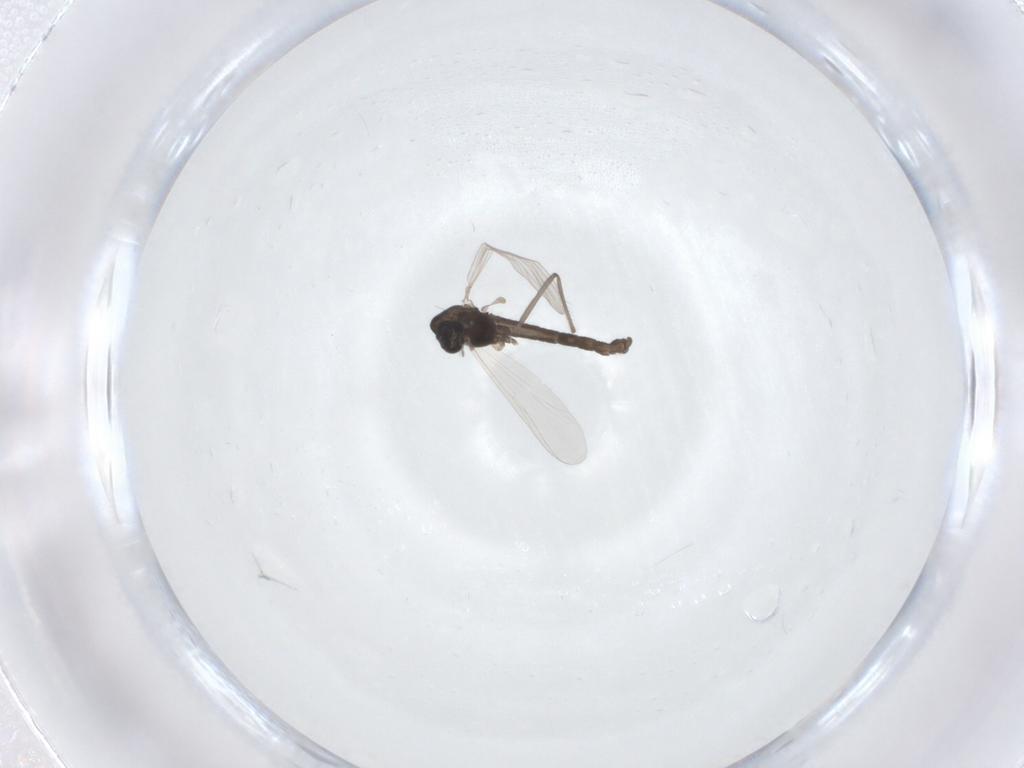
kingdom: Animalia
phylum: Arthropoda
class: Insecta
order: Diptera
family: Chironomidae
